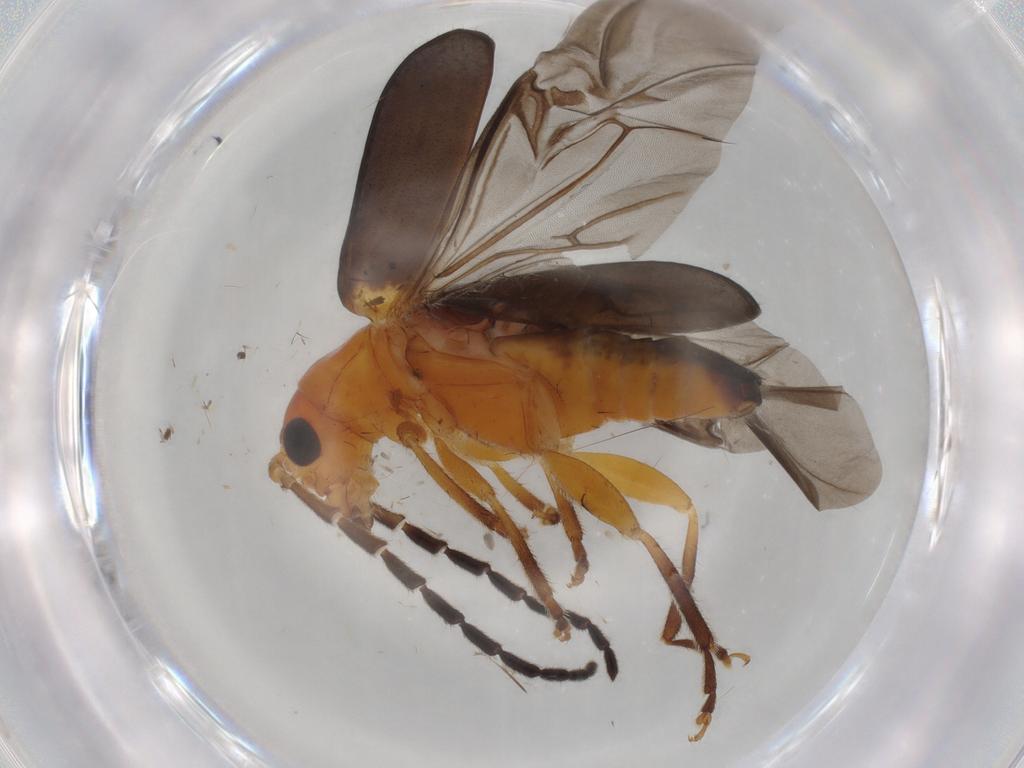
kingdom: Animalia
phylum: Arthropoda
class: Insecta
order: Coleoptera
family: Chrysomelidae
